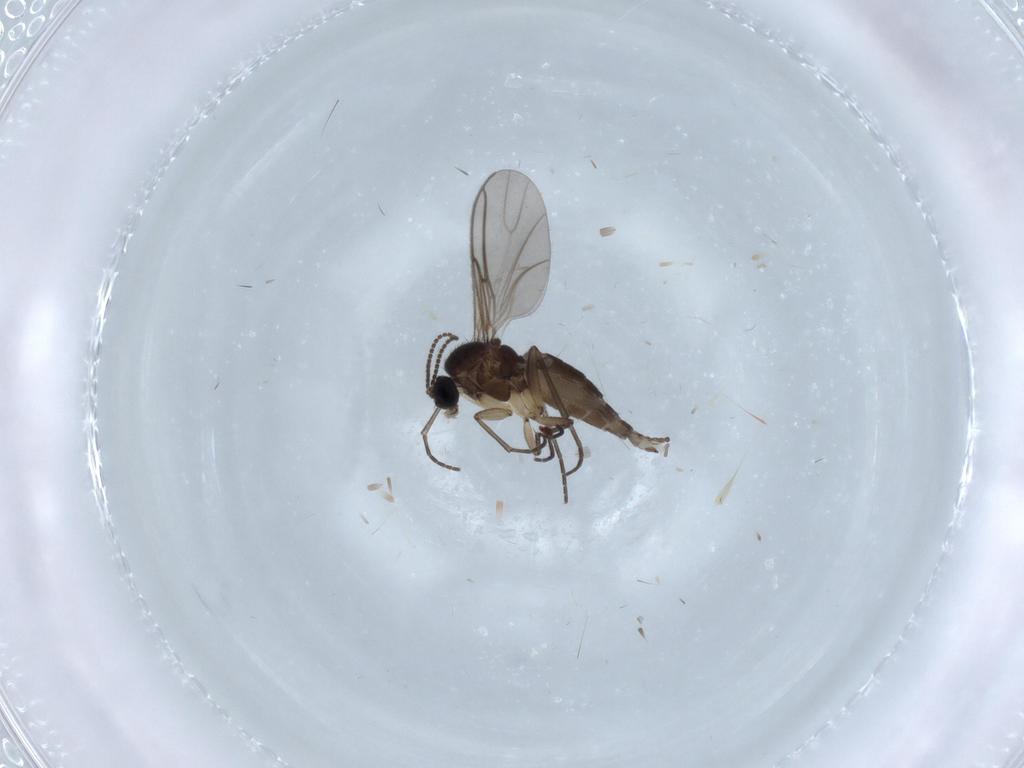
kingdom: Animalia
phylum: Arthropoda
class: Insecta
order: Diptera
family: Sciaridae
